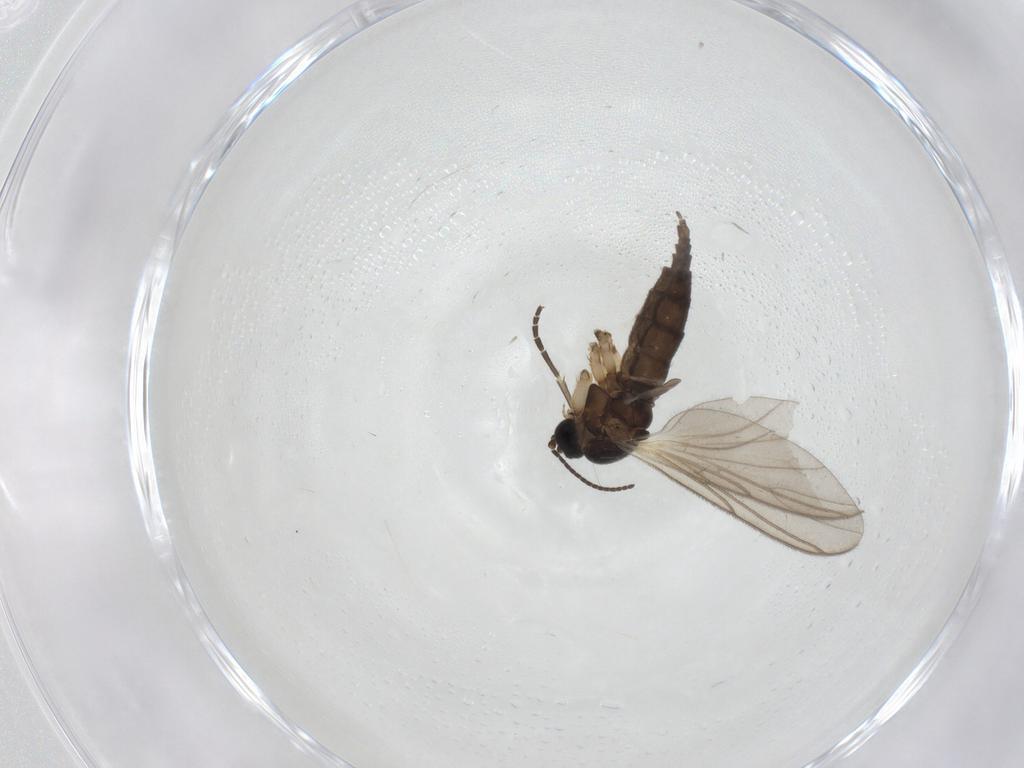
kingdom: Animalia
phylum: Arthropoda
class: Insecta
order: Diptera
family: Sciaridae
